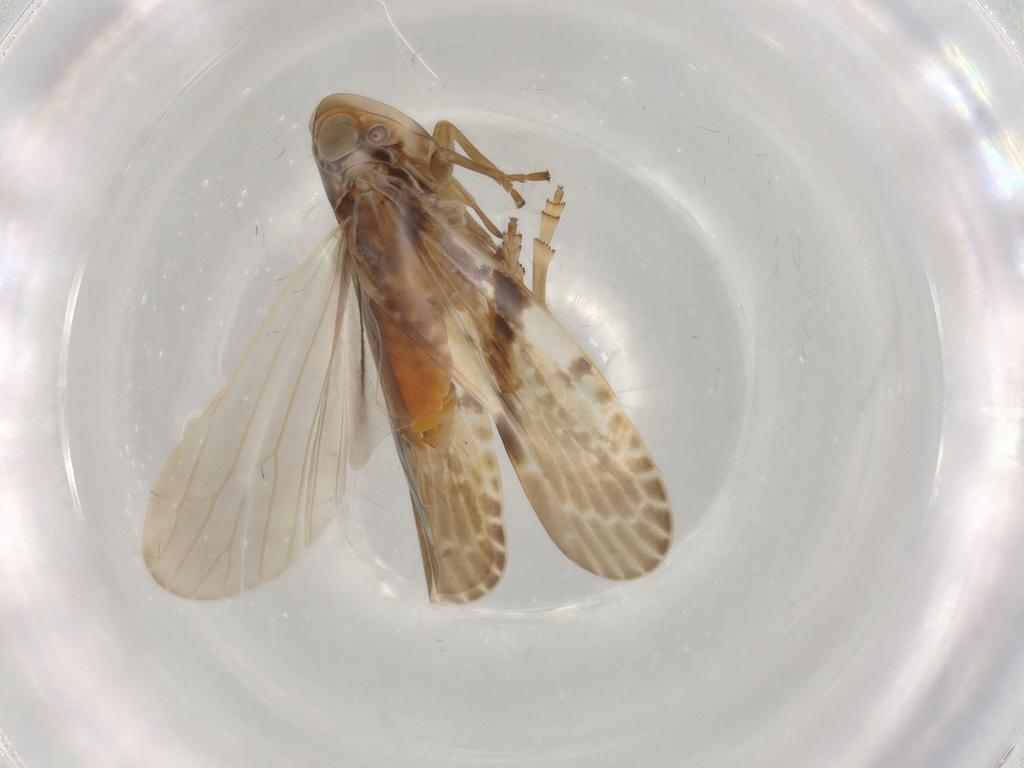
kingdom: Animalia
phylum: Arthropoda
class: Insecta
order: Hemiptera
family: Achilidae
